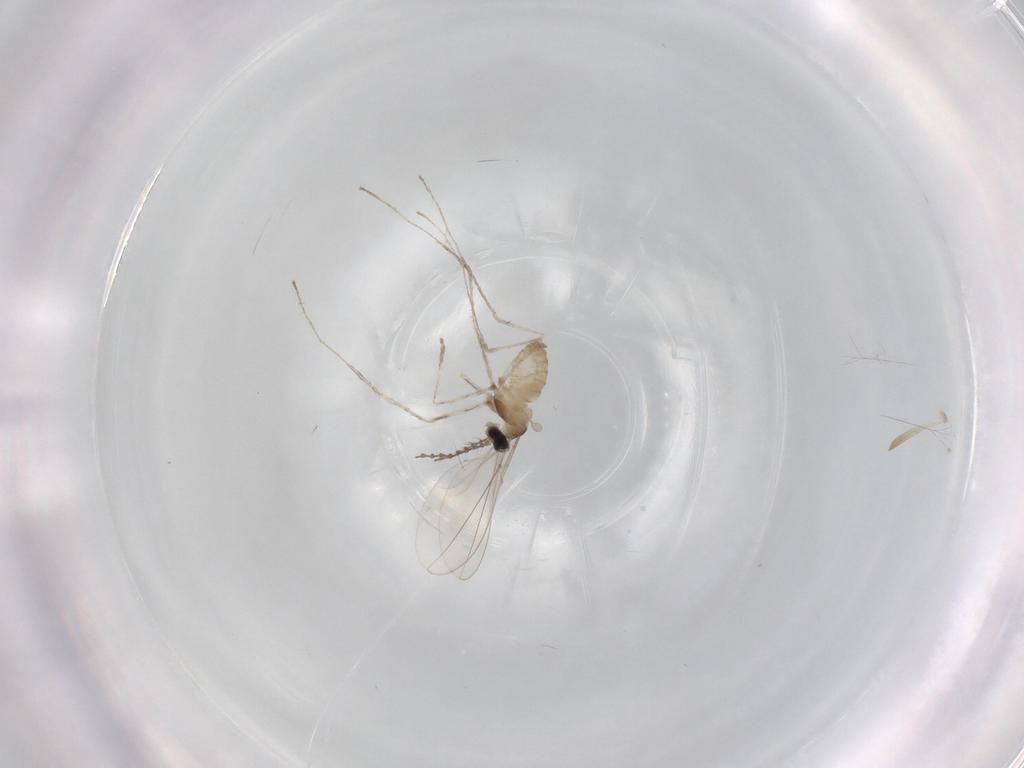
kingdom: Animalia
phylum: Arthropoda
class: Insecta
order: Diptera
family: Cecidomyiidae
